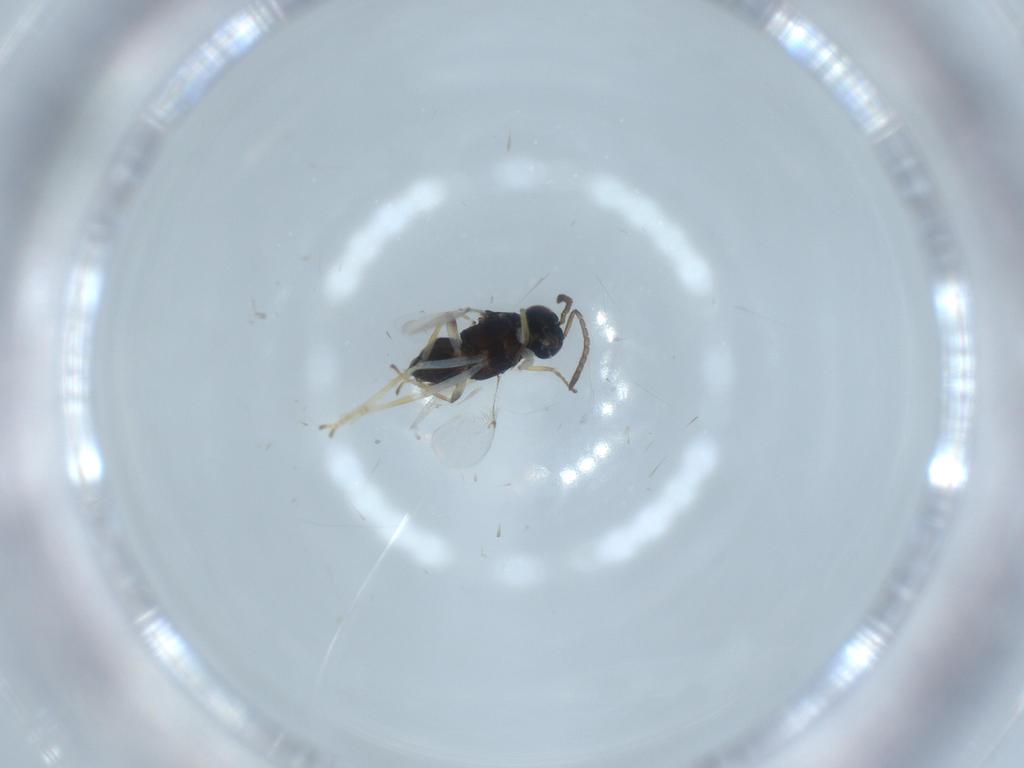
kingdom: Animalia
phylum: Arthropoda
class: Insecta
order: Hymenoptera
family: Encyrtidae
